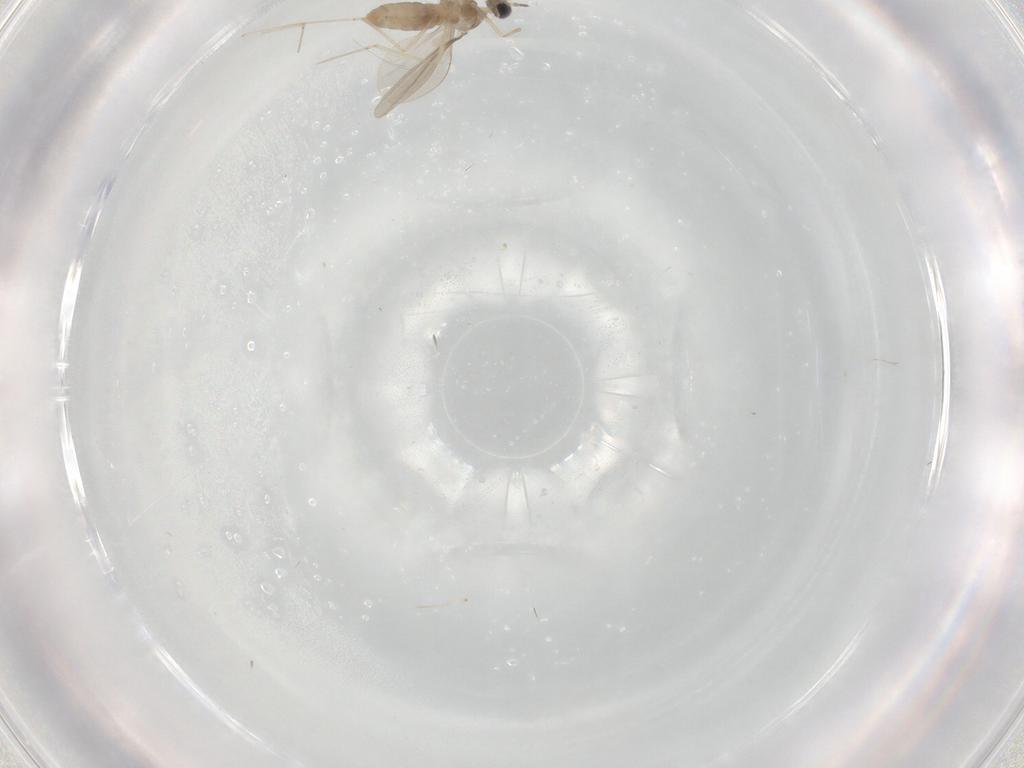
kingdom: Animalia
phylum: Arthropoda
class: Insecta
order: Diptera
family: Cecidomyiidae
